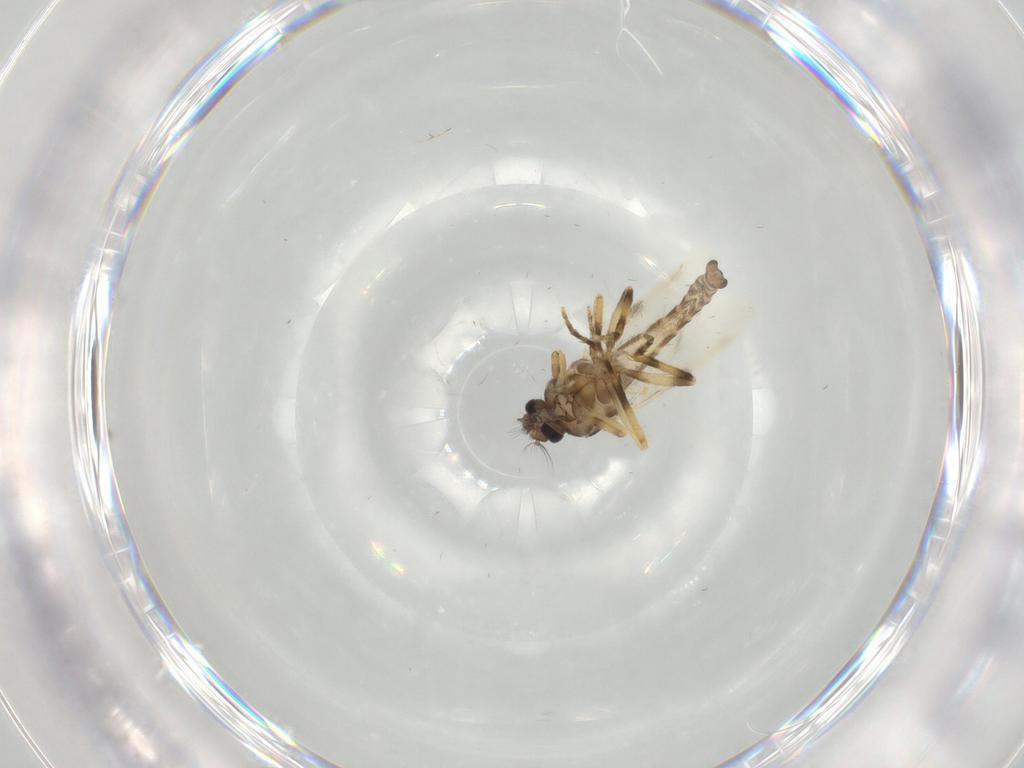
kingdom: Animalia
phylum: Arthropoda
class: Insecta
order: Diptera
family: Ceratopogonidae
